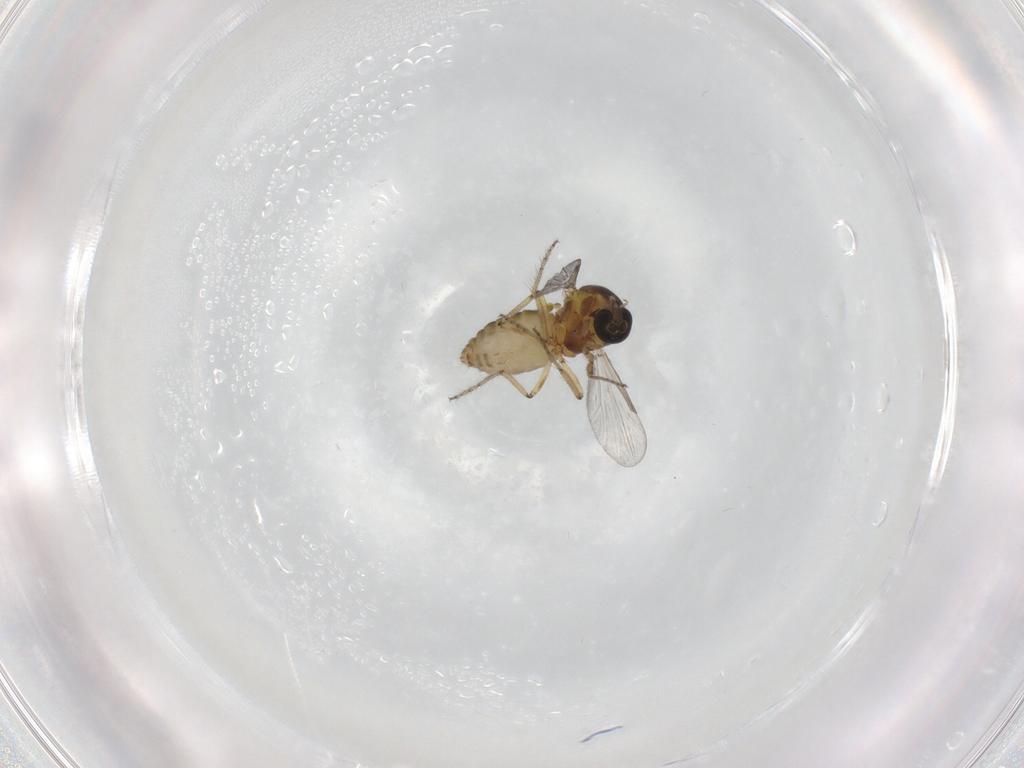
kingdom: Animalia
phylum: Arthropoda
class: Insecta
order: Diptera
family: Ceratopogonidae
